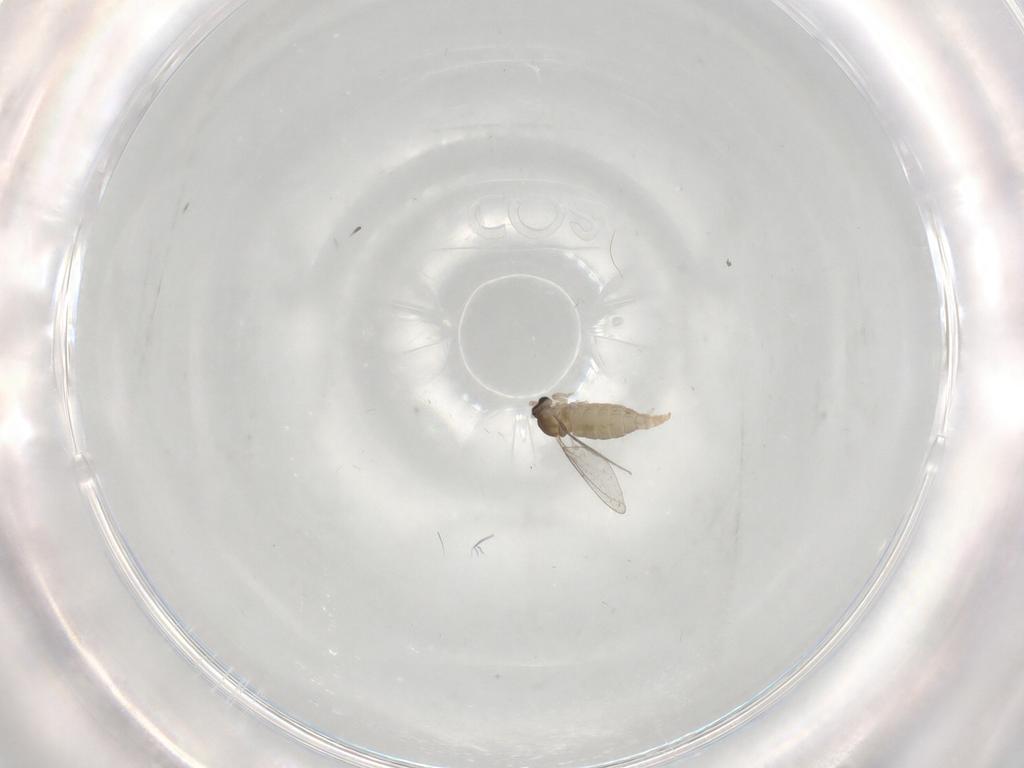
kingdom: Animalia
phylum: Arthropoda
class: Insecta
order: Diptera
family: Cecidomyiidae
